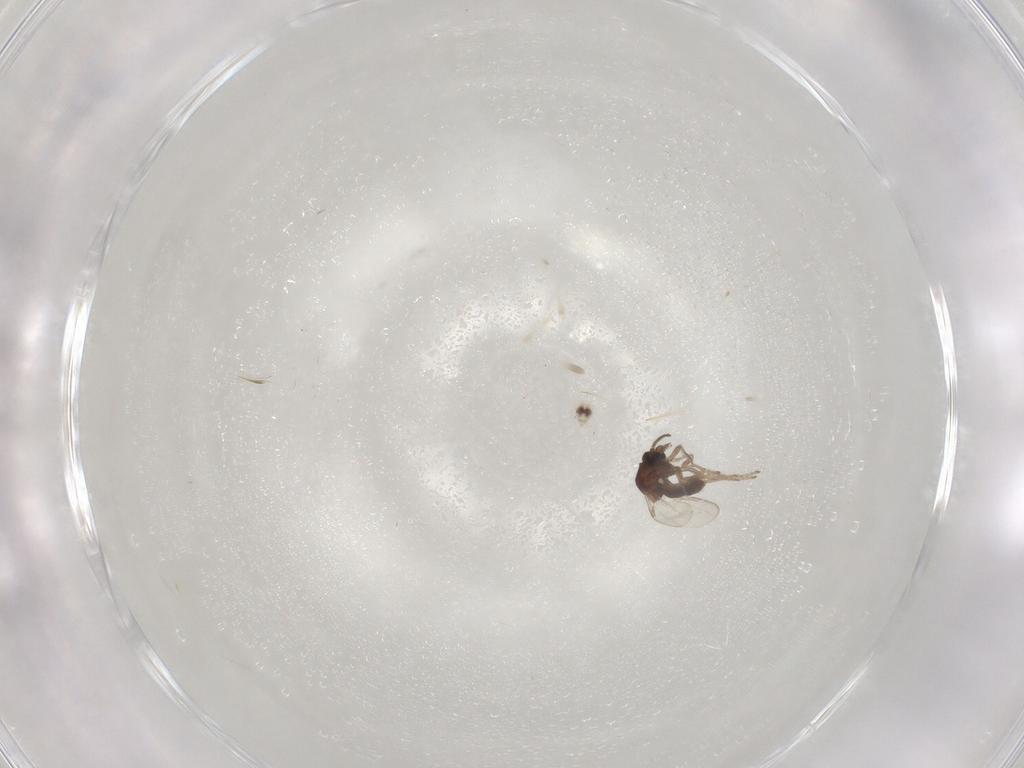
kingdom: Animalia
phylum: Arthropoda
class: Insecta
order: Diptera
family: Ceratopogonidae
